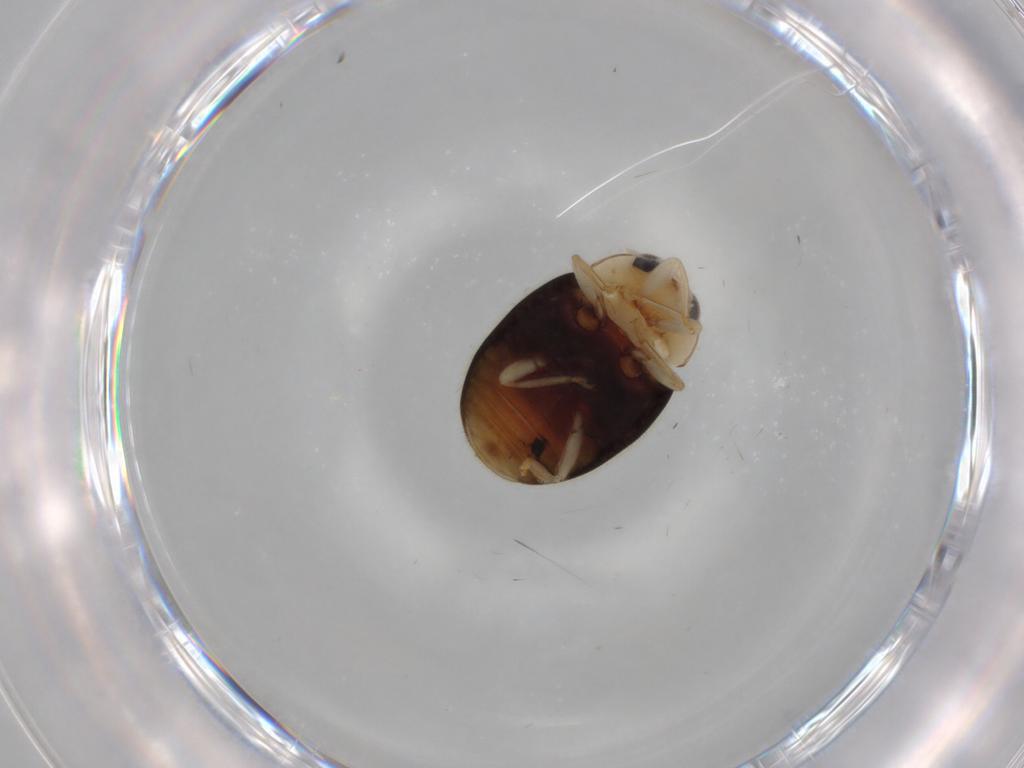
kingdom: Animalia
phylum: Arthropoda
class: Insecta
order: Coleoptera
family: Coccinellidae
